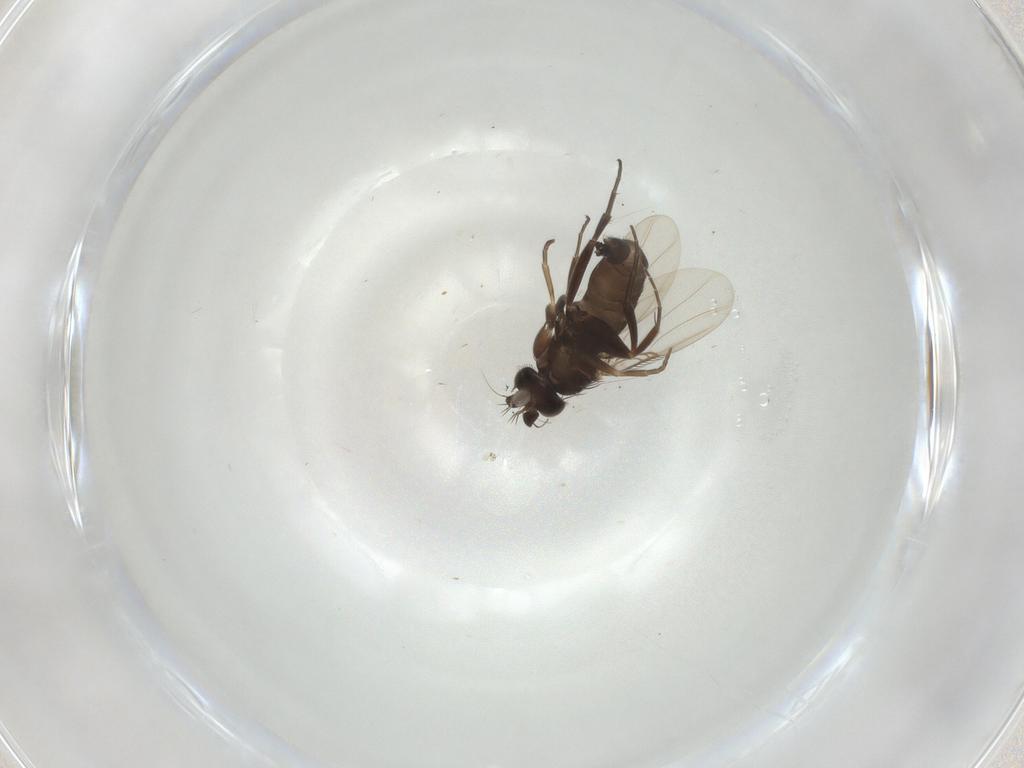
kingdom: Animalia
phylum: Arthropoda
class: Insecta
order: Diptera
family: Phoridae
